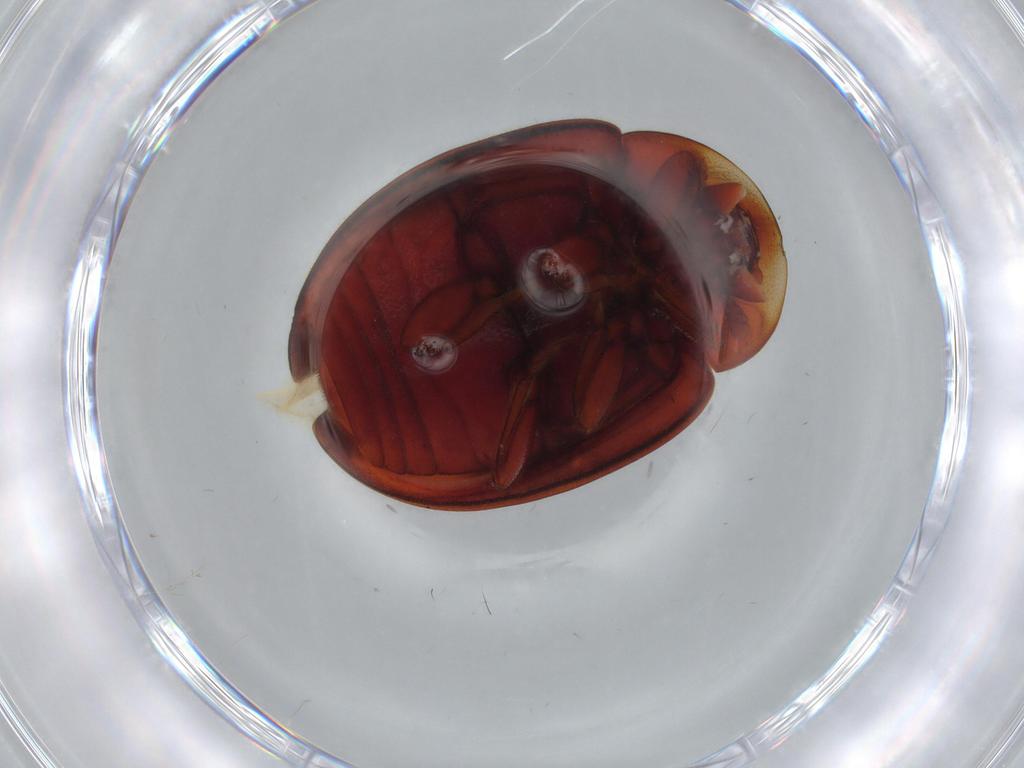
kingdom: Animalia
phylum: Arthropoda
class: Insecta
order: Coleoptera
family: Coccinellidae
